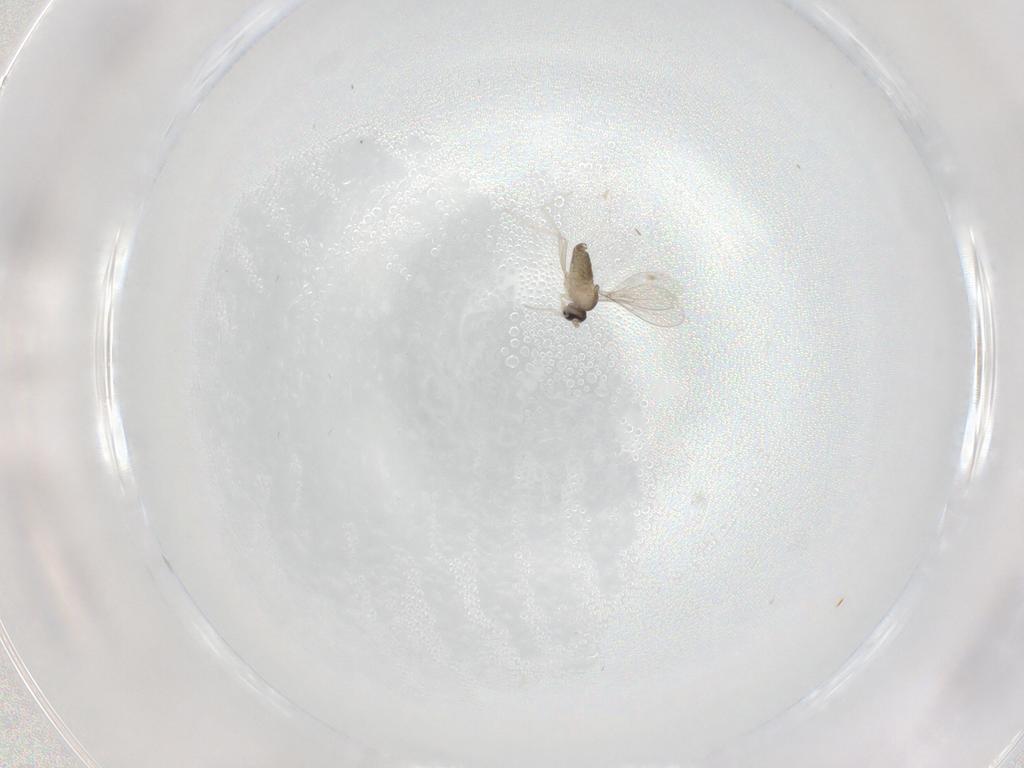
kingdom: Animalia
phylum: Arthropoda
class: Insecta
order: Diptera
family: Cecidomyiidae
